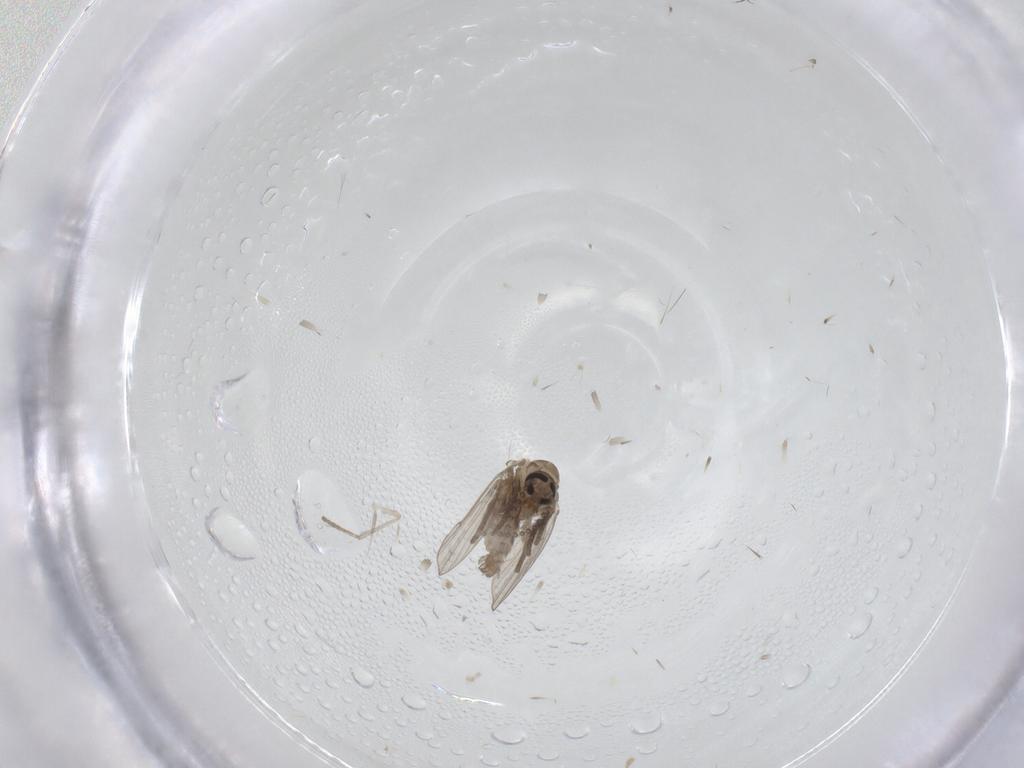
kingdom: Animalia
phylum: Arthropoda
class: Insecta
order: Diptera
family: Psychodidae
